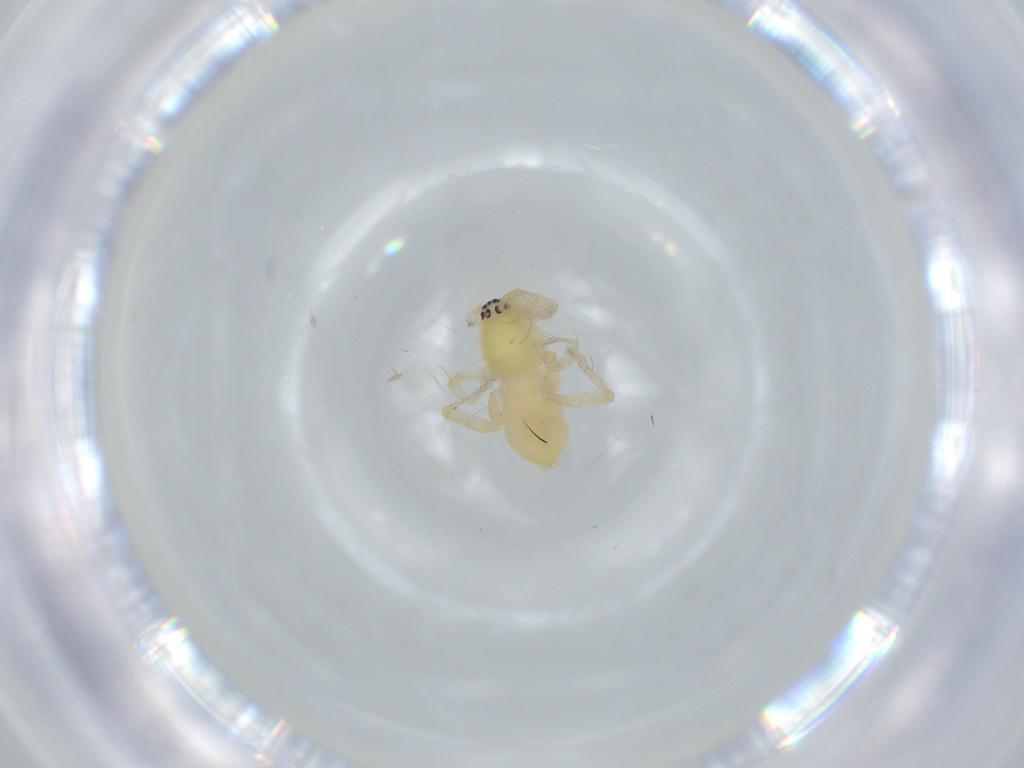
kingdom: Animalia
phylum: Arthropoda
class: Arachnida
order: Araneae
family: Anyphaenidae
